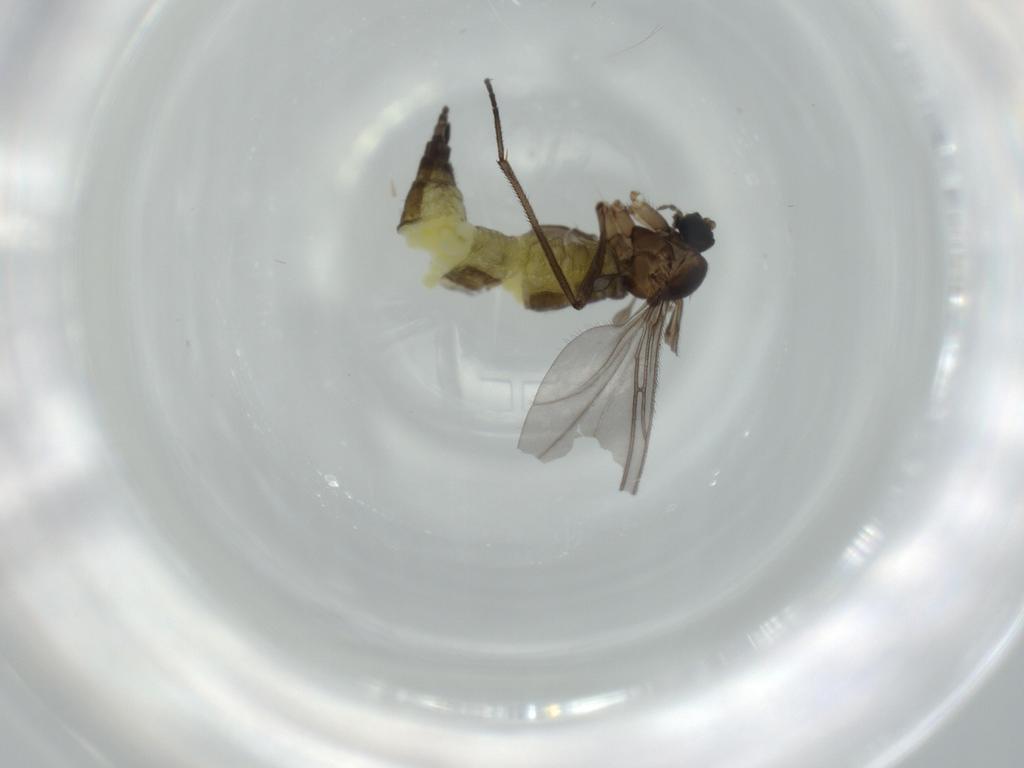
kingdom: Animalia
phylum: Arthropoda
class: Insecta
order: Diptera
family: Sciaridae
